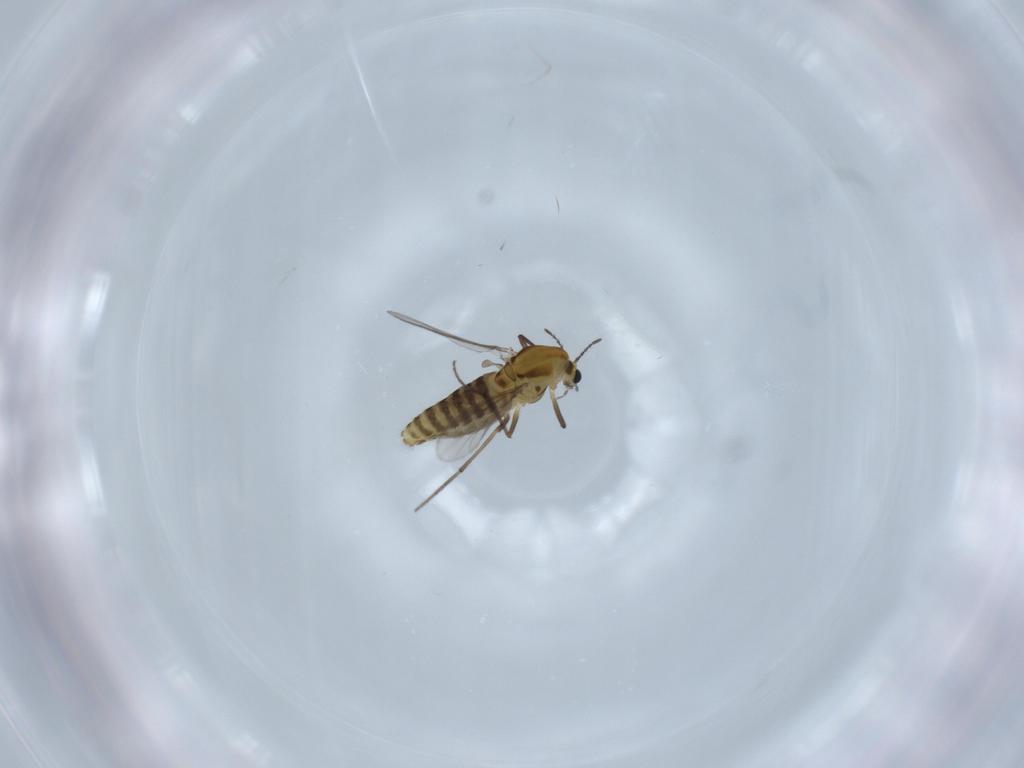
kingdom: Animalia
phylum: Arthropoda
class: Insecta
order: Diptera
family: Chironomidae
